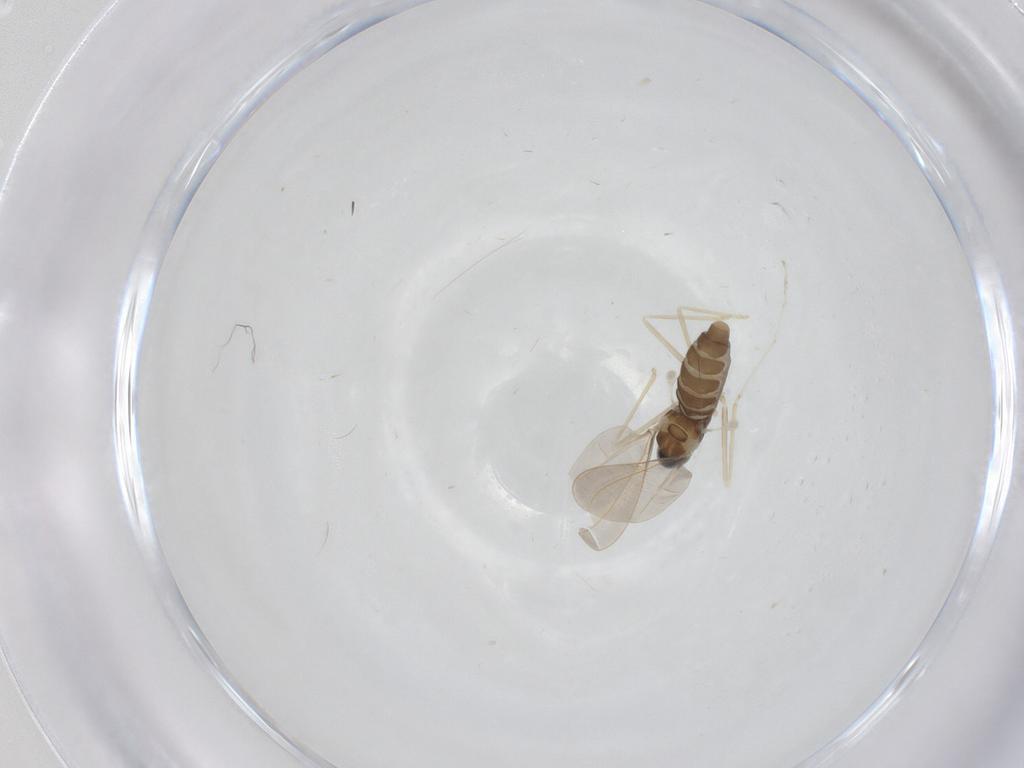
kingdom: Animalia
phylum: Arthropoda
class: Insecta
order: Diptera
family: Cecidomyiidae
